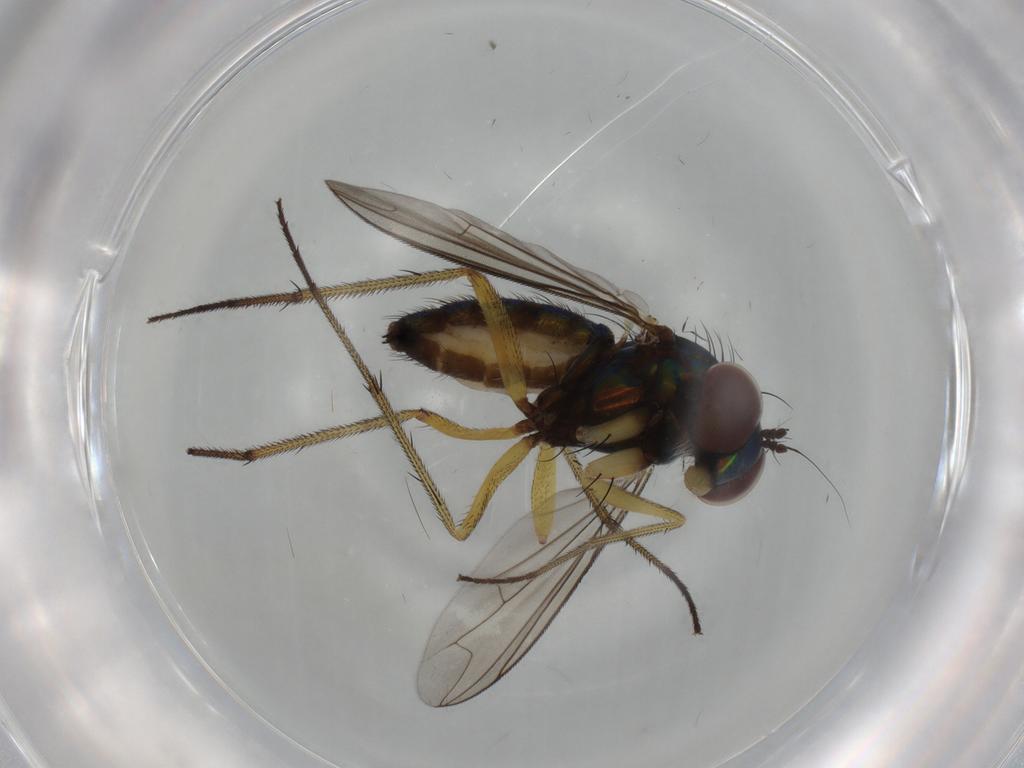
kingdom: Animalia
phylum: Arthropoda
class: Insecta
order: Diptera
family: Dolichopodidae
